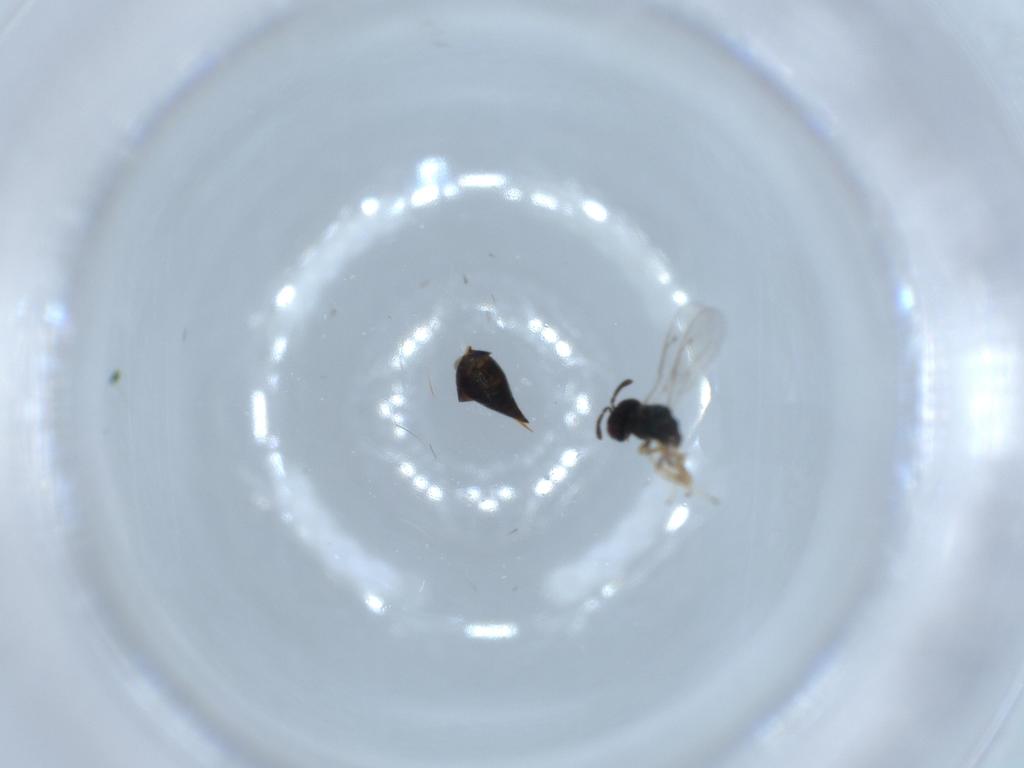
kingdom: Animalia
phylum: Arthropoda
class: Insecta
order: Hymenoptera
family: Pteromalidae
